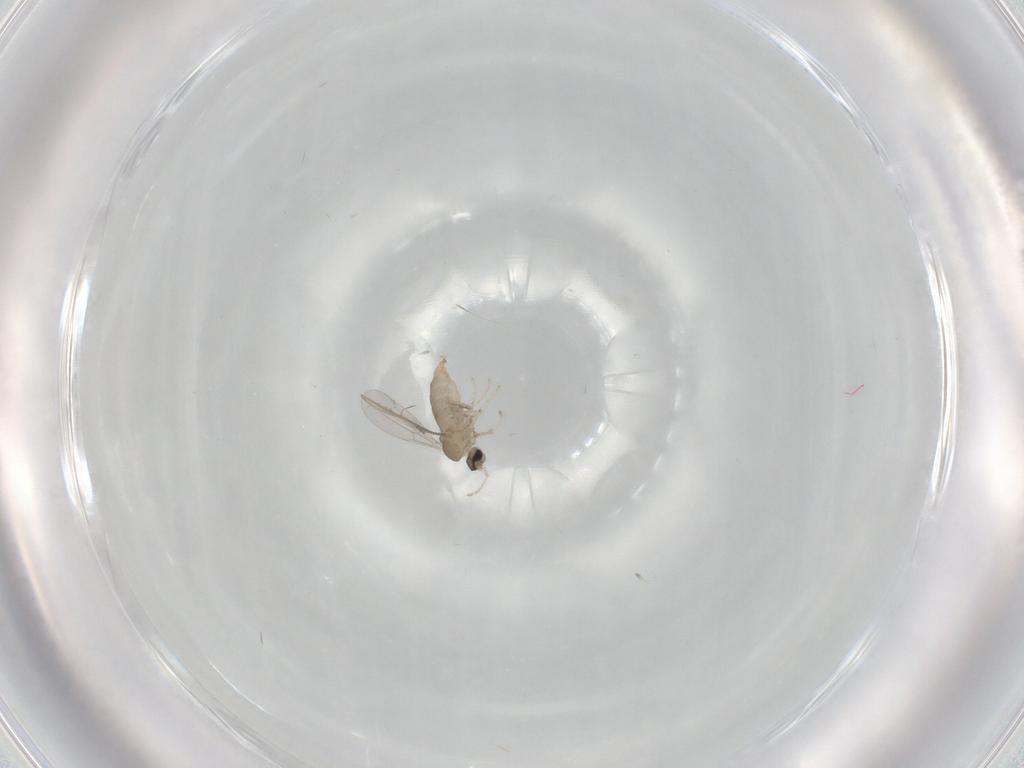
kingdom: Animalia
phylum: Arthropoda
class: Insecta
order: Diptera
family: Cecidomyiidae
